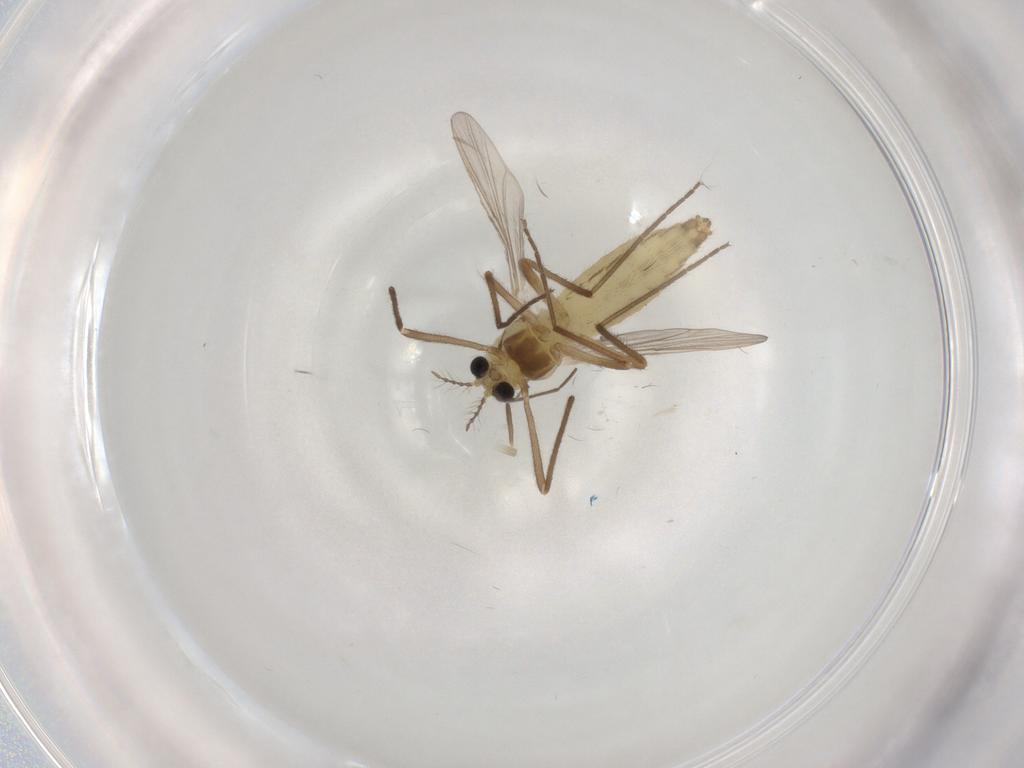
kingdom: Animalia
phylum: Arthropoda
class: Insecta
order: Diptera
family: Chironomidae
